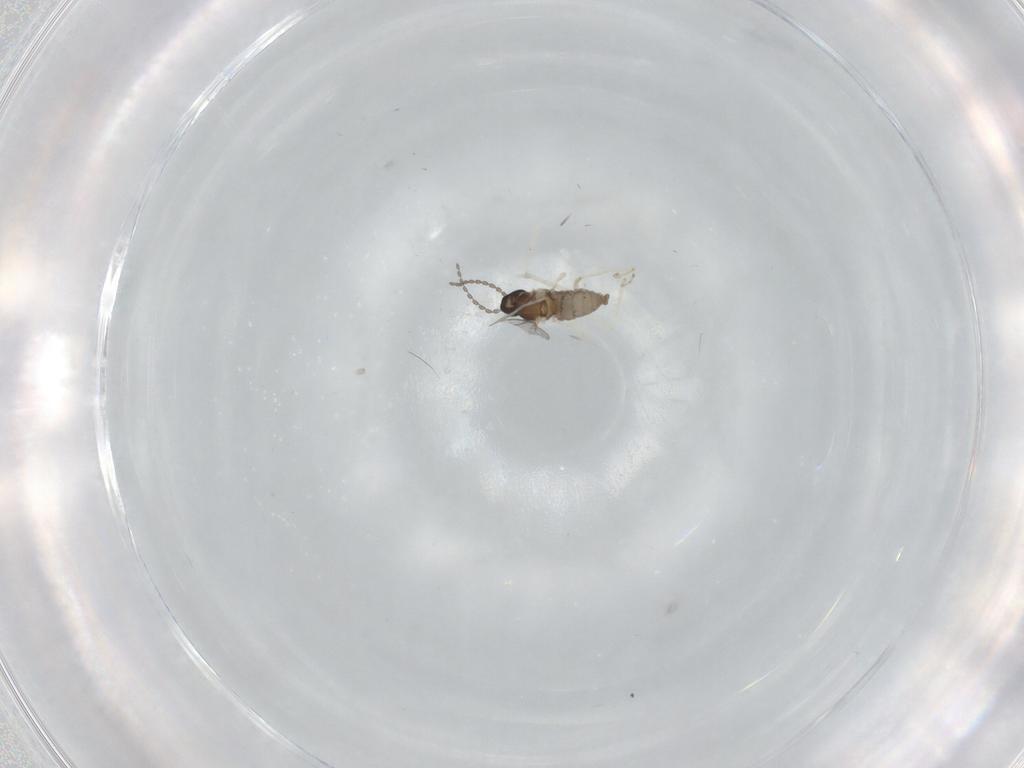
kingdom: Animalia
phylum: Arthropoda
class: Insecta
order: Diptera
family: Cecidomyiidae
